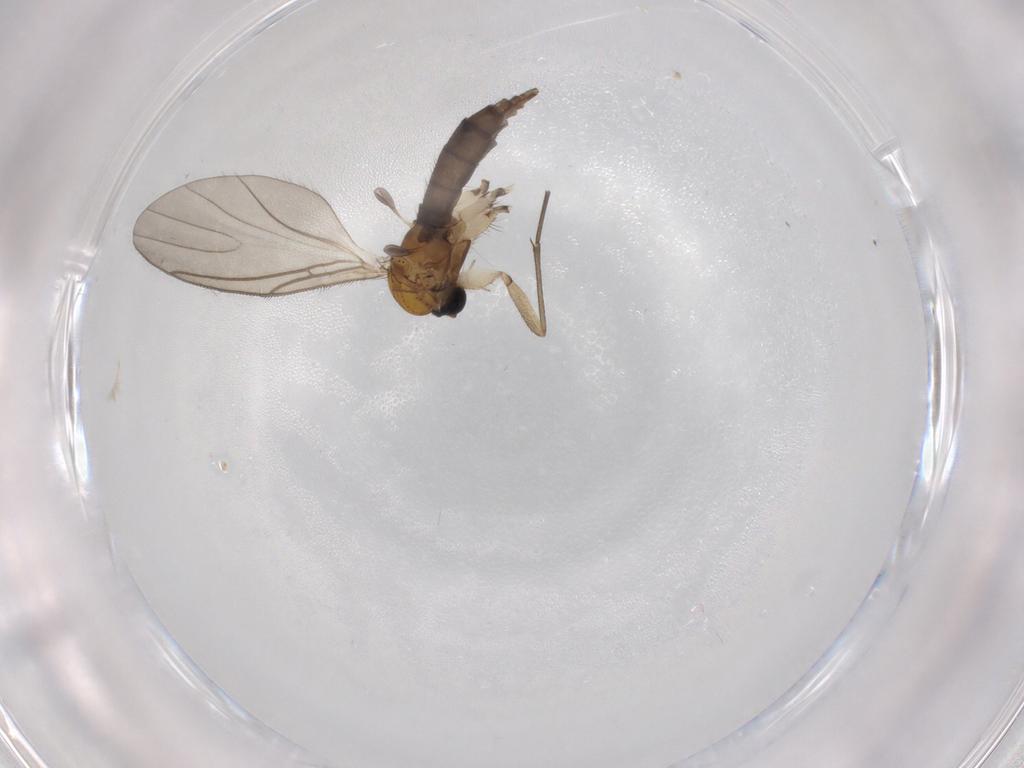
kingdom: Animalia
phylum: Arthropoda
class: Insecta
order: Diptera
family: Sciaridae
